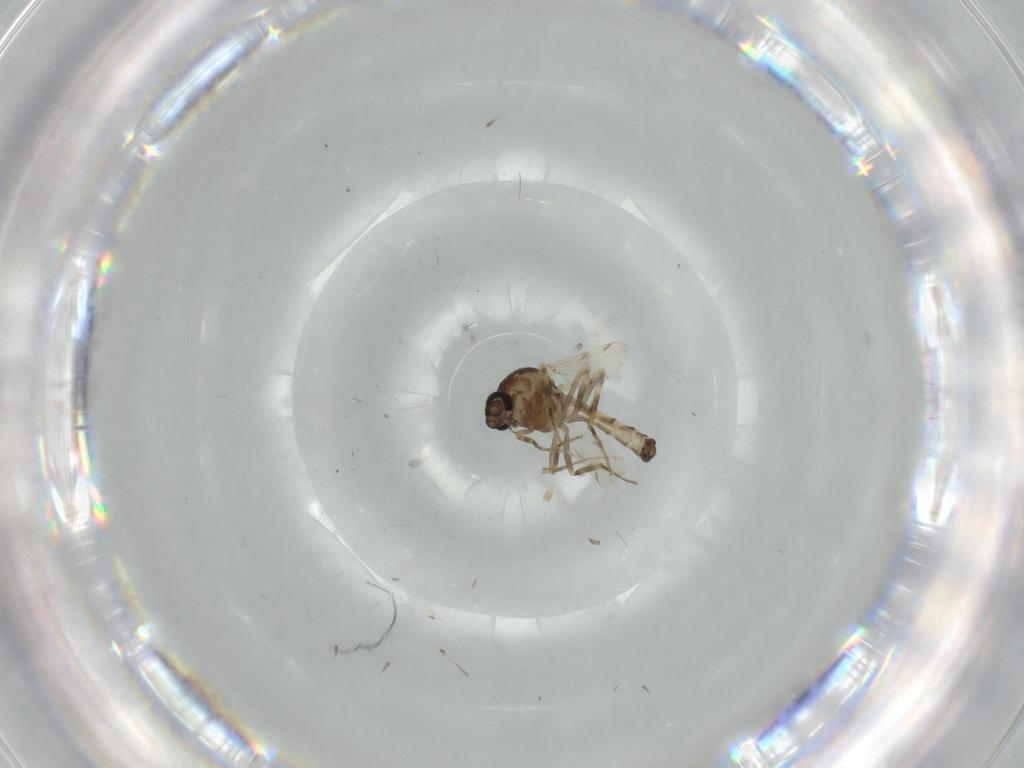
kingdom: Animalia
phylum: Arthropoda
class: Insecta
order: Diptera
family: Ceratopogonidae
